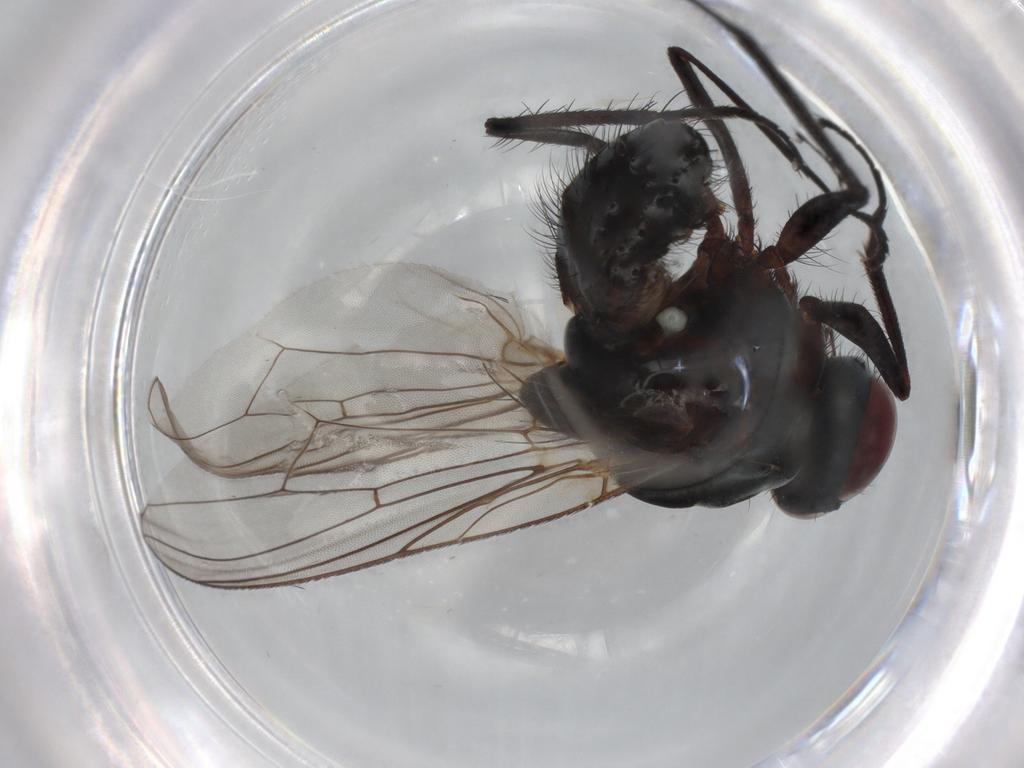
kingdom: Animalia
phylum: Arthropoda
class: Insecta
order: Diptera
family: Anthomyiidae
